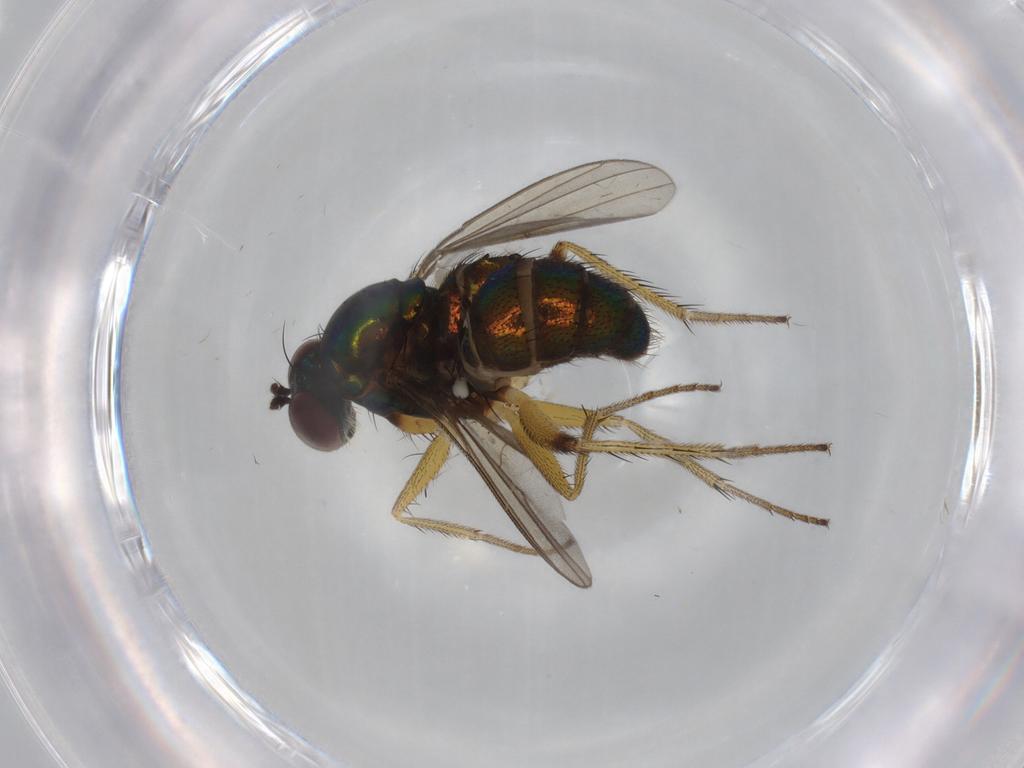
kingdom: Animalia
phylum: Arthropoda
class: Insecta
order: Diptera
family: Dolichopodidae
